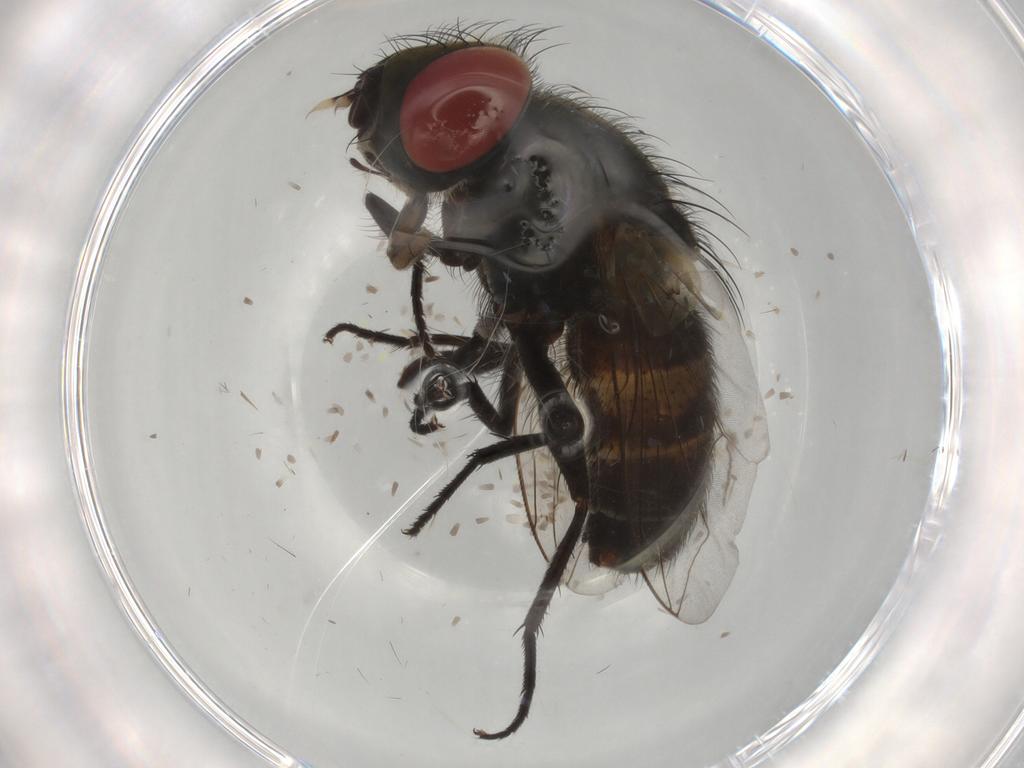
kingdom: Animalia
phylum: Arthropoda
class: Insecta
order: Diptera
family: Sarcophagidae
